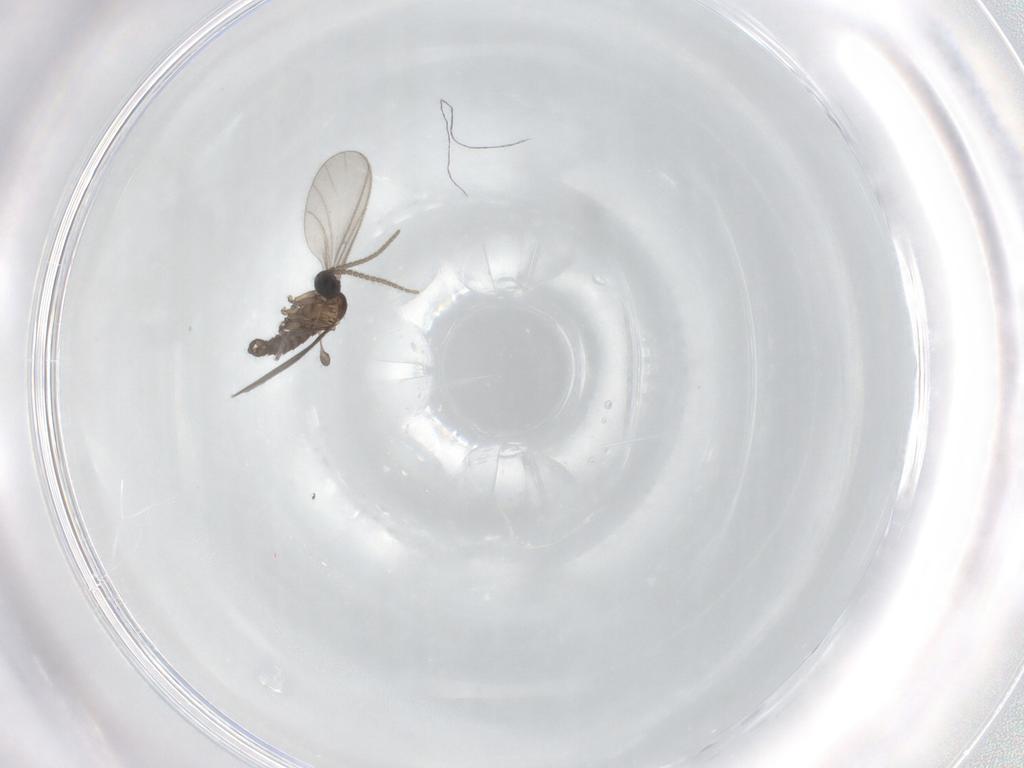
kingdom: Animalia
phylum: Arthropoda
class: Insecta
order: Diptera
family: Sciaridae
